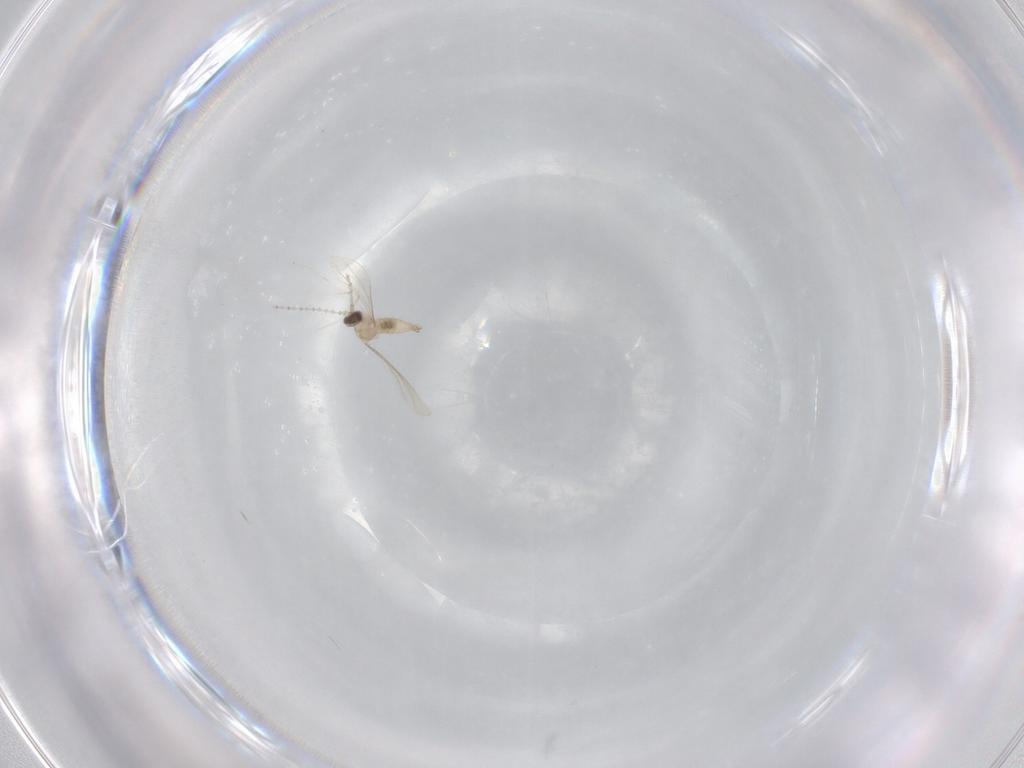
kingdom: Animalia
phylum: Arthropoda
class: Insecta
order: Diptera
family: Cecidomyiidae
